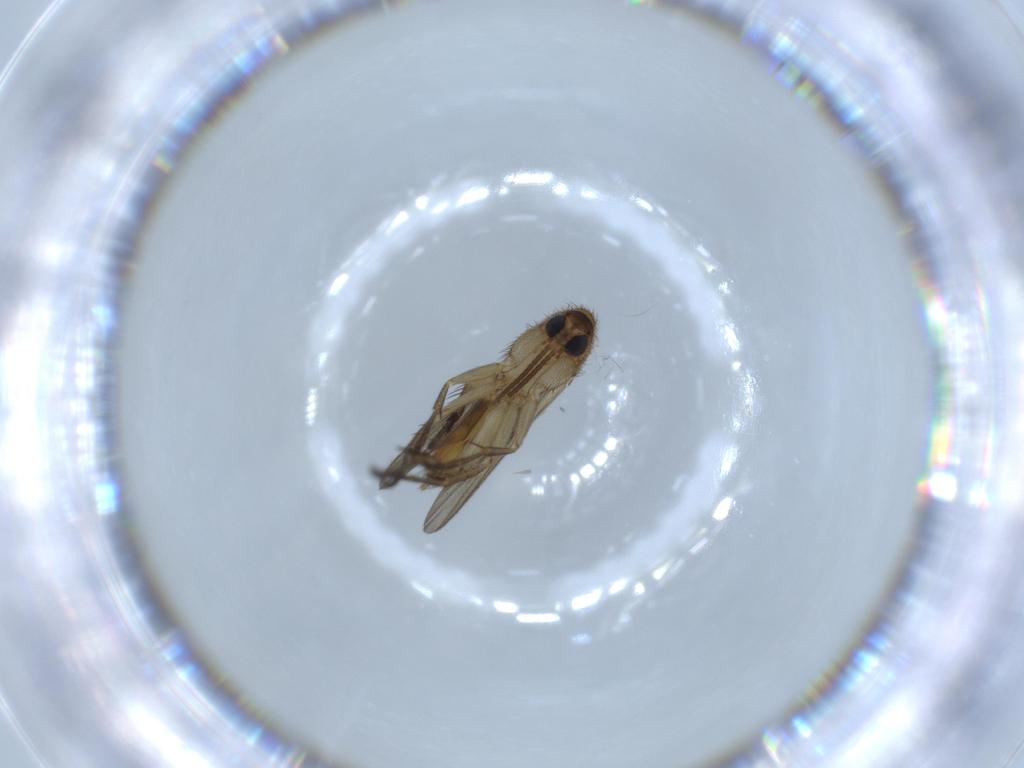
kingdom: Animalia
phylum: Arthropoda
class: Insecta
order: Diptera
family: Mycetophilidae
